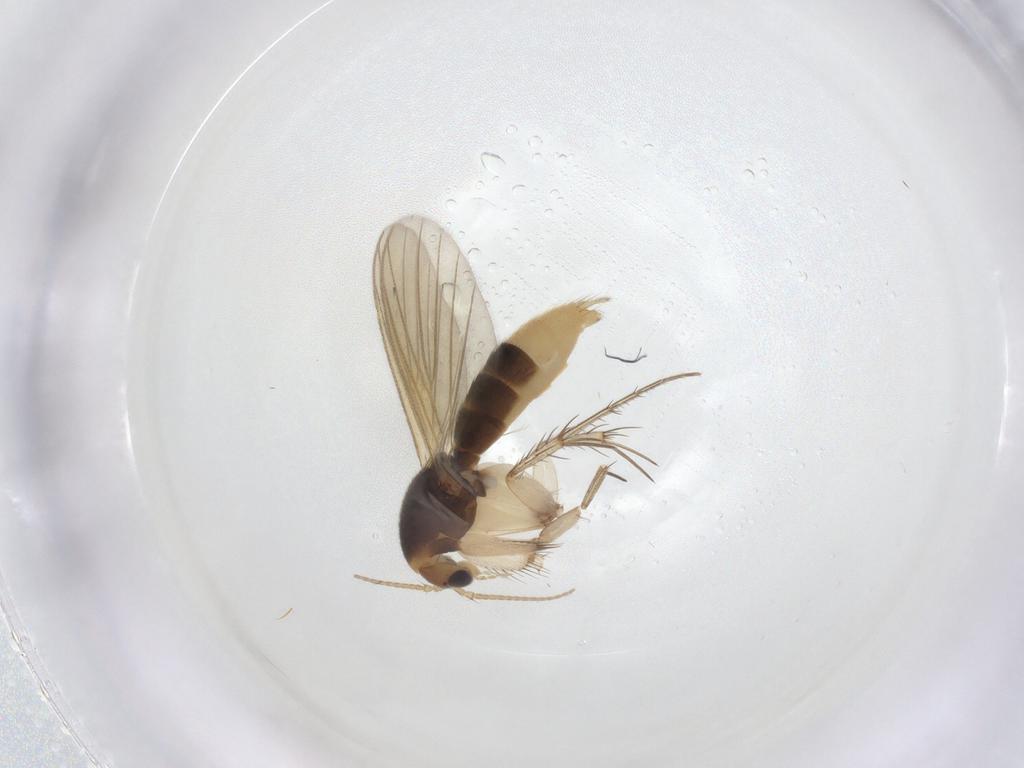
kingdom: Animalia
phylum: Arthropoda
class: Insecta
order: Diptera
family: Mycetophilidae
